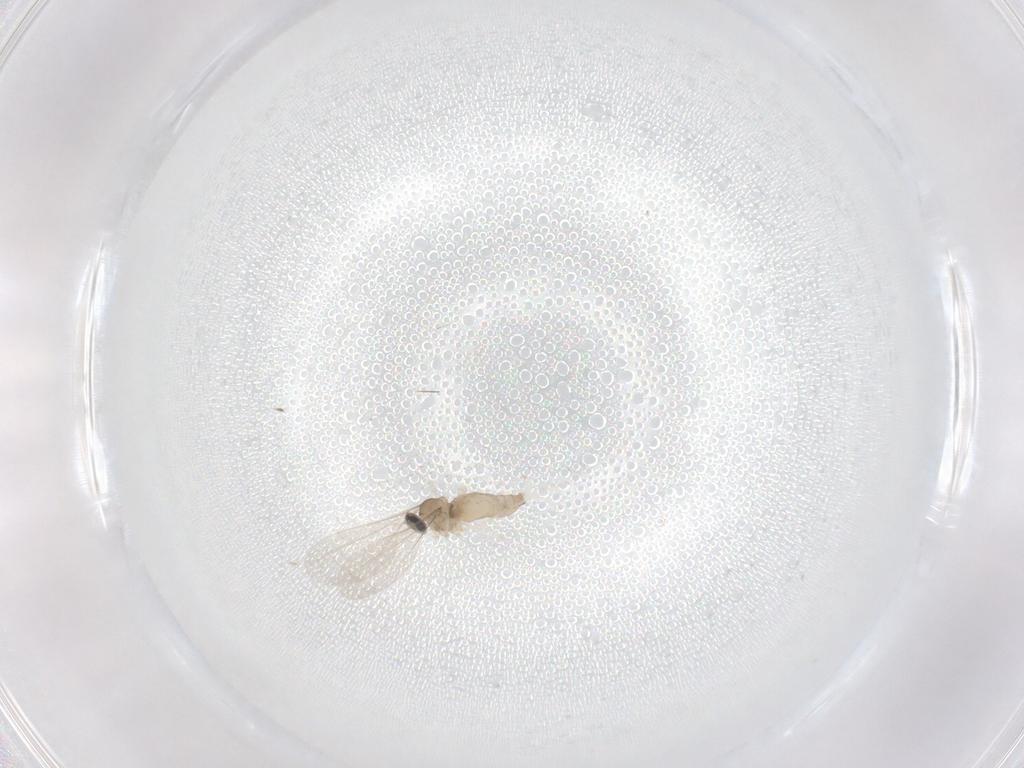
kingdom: Animalia
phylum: Arthropoda
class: Insecta
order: Diptera
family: Cecidomyiidae
